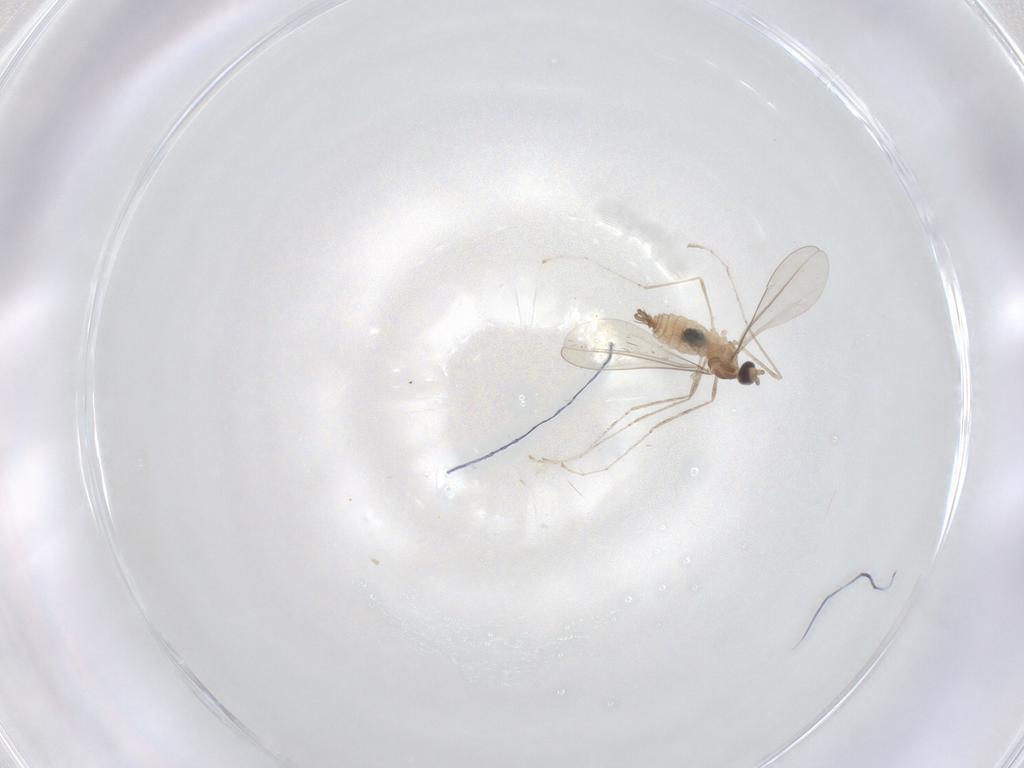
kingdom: Animalia
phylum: Arthropoda
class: Insecta
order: Diptera
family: Cecidomyiidae
